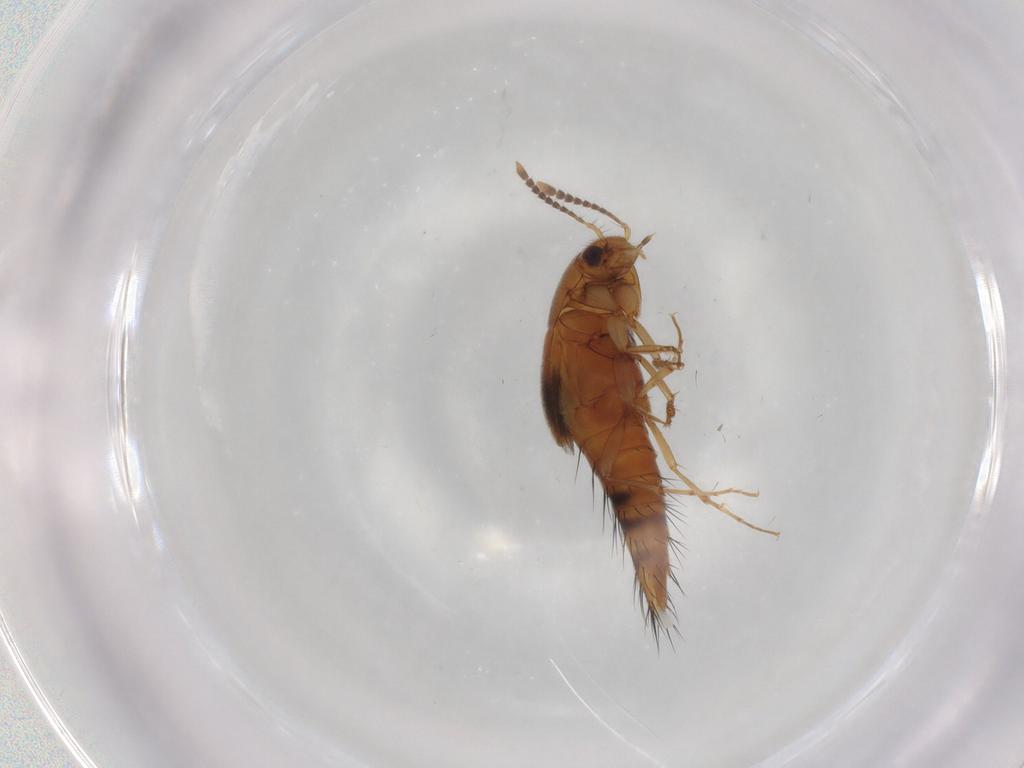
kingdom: Animalia
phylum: Arthropoda
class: Insecta
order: Coleoptera
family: Staphylinidae
